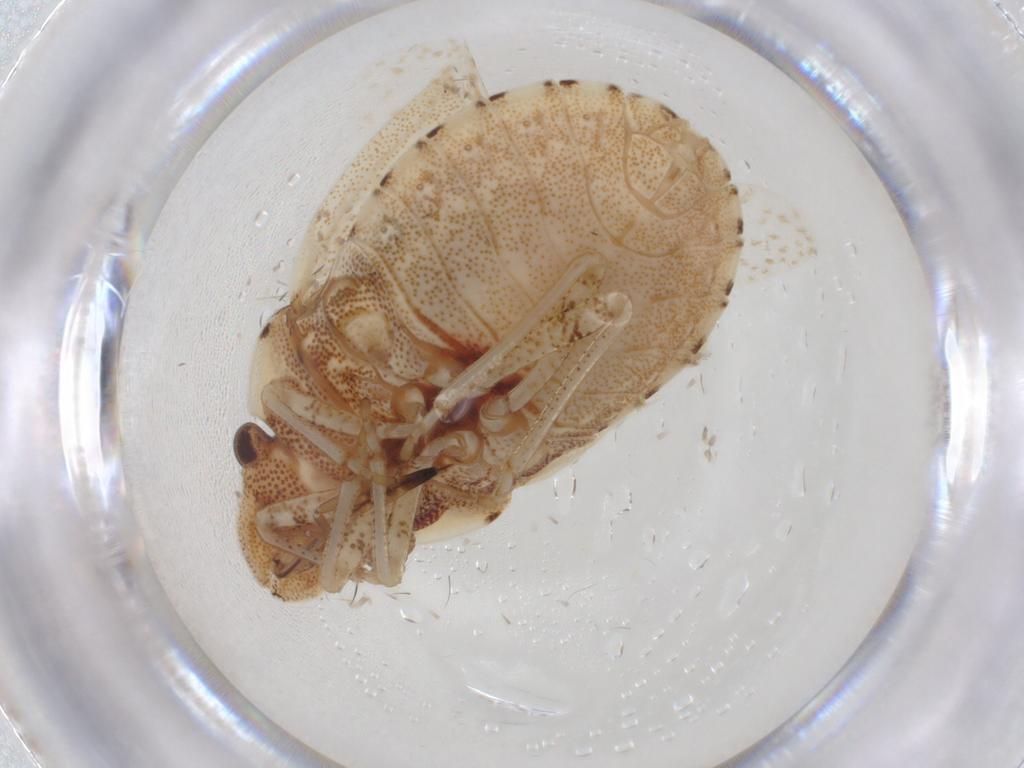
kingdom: Animalia
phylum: Arthropoda
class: Insecta
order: Hemiptera
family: Pentatomidae
